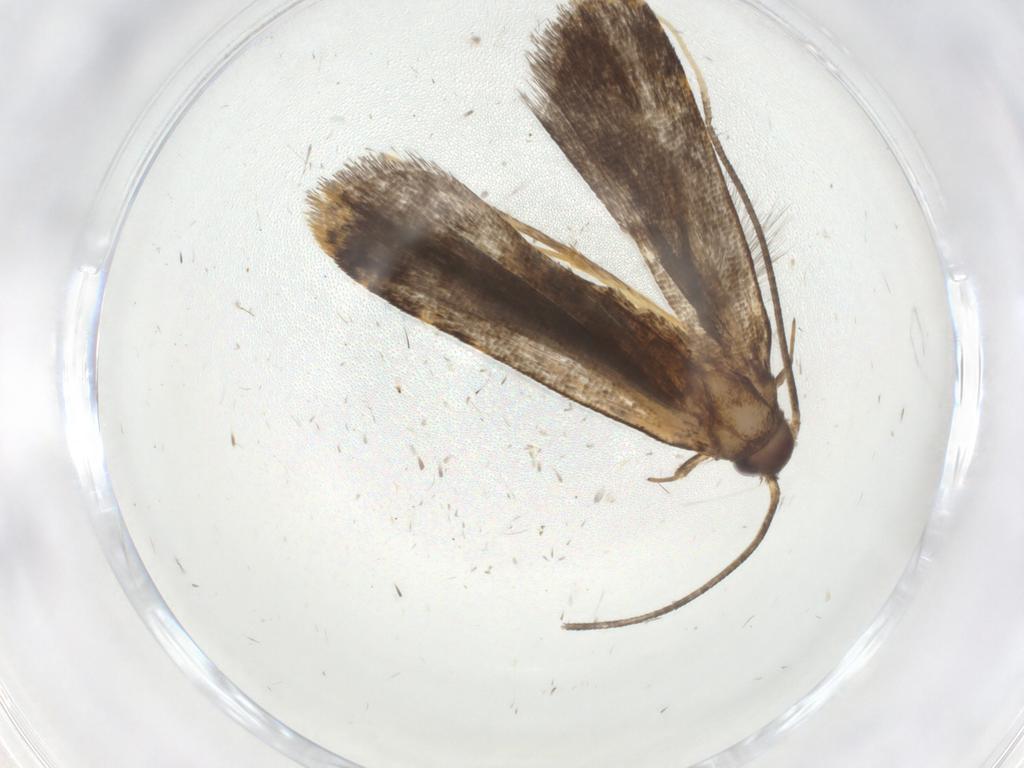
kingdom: Animalia
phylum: Arthropoda
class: Insecta
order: Lepidoptera
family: Cosmopterigidae
